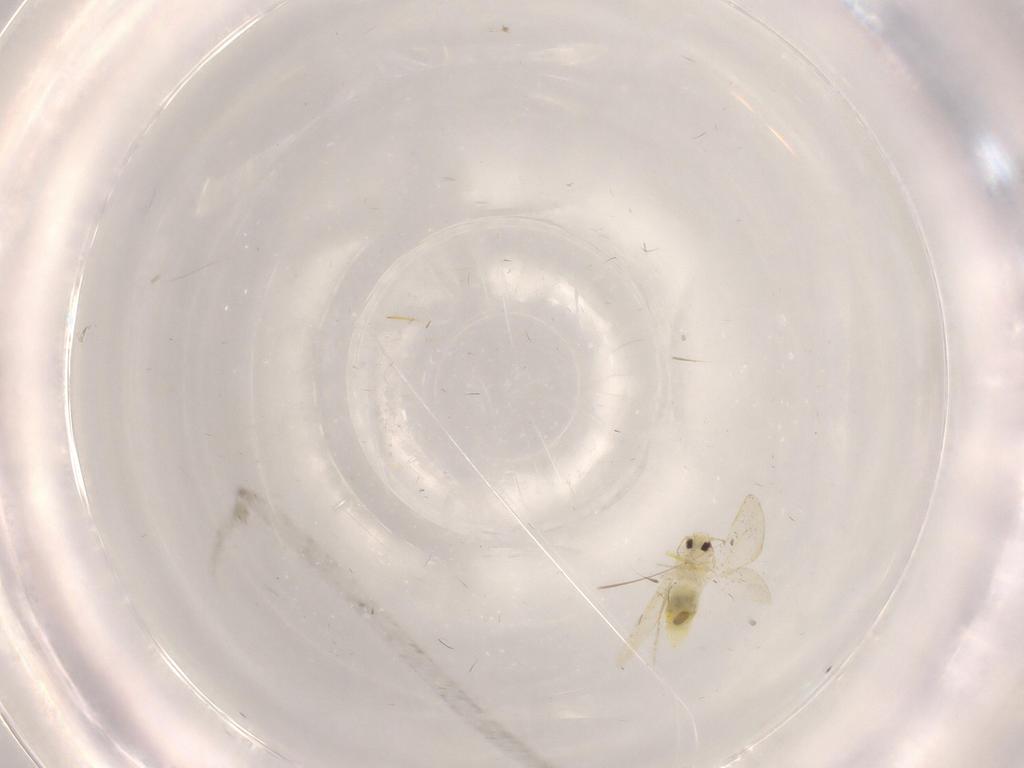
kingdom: Animalia
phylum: Arthropoda
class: Insecta
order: Hemiptera
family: Aleyrodidae
